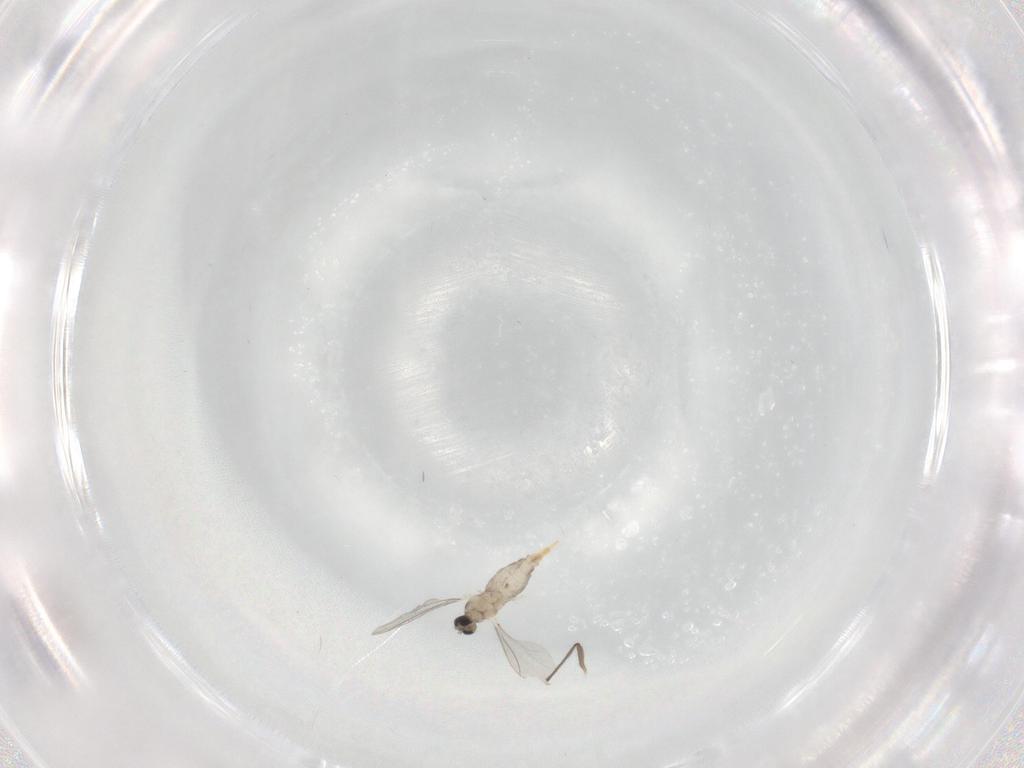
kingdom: Animalia
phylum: Arthropoda
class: Insecta
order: Diptera
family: Cecidomyiidae
